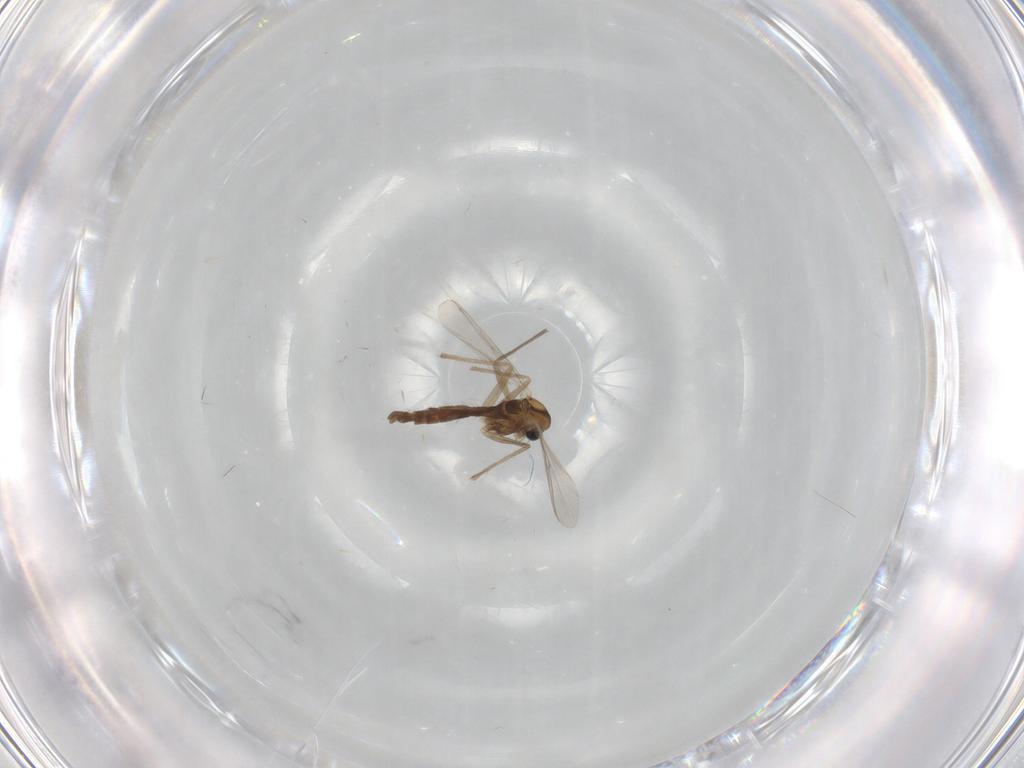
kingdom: Animalia
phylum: Arthropoda
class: Insecta
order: Diptera
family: Chironomidae
